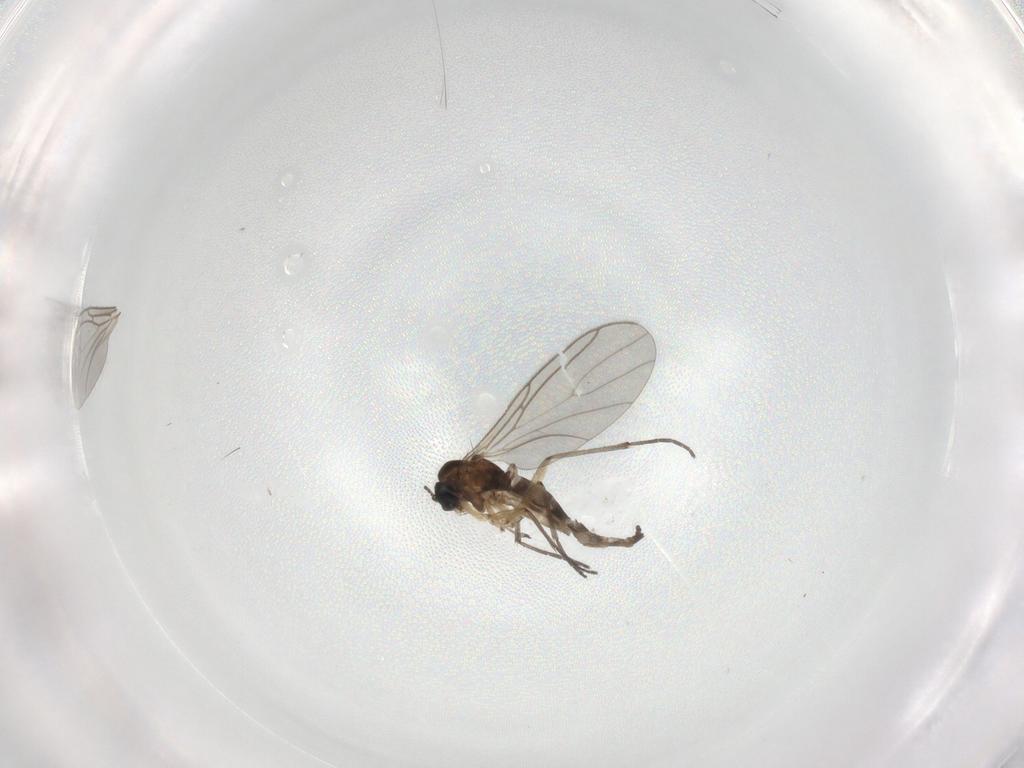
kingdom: Animalia
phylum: Arthropoda
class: Insecta
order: Diptera
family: Sciaridae
